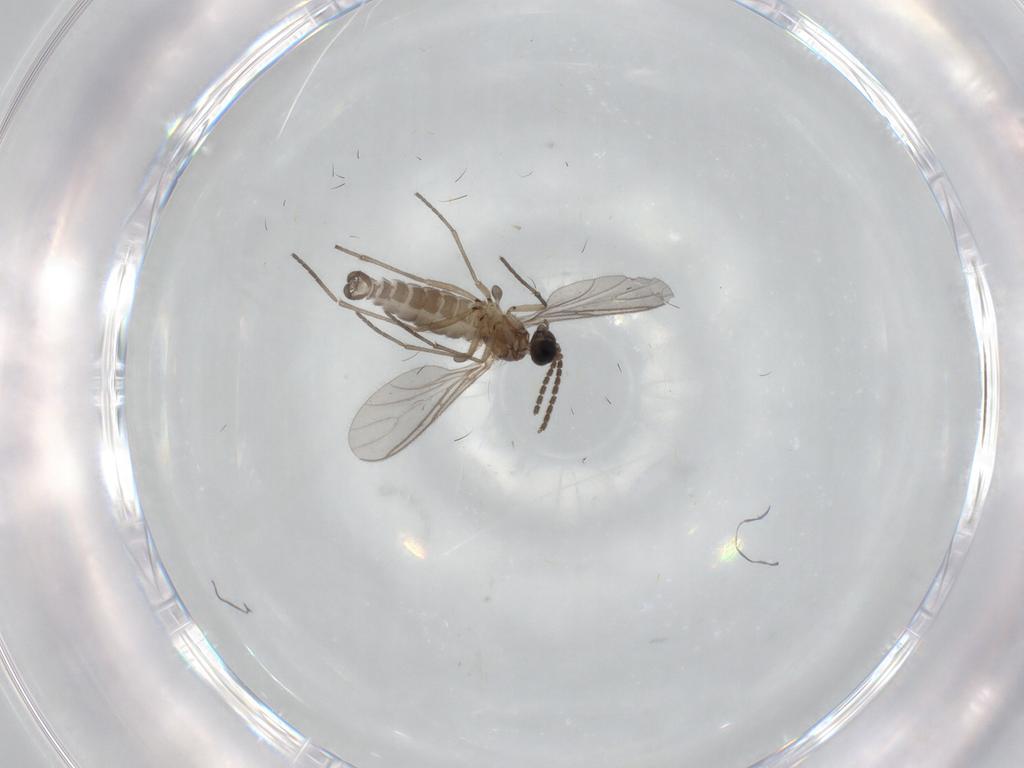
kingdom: Animalia
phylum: Arthropoda
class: Insecta
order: Diptera
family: Sciaridae
